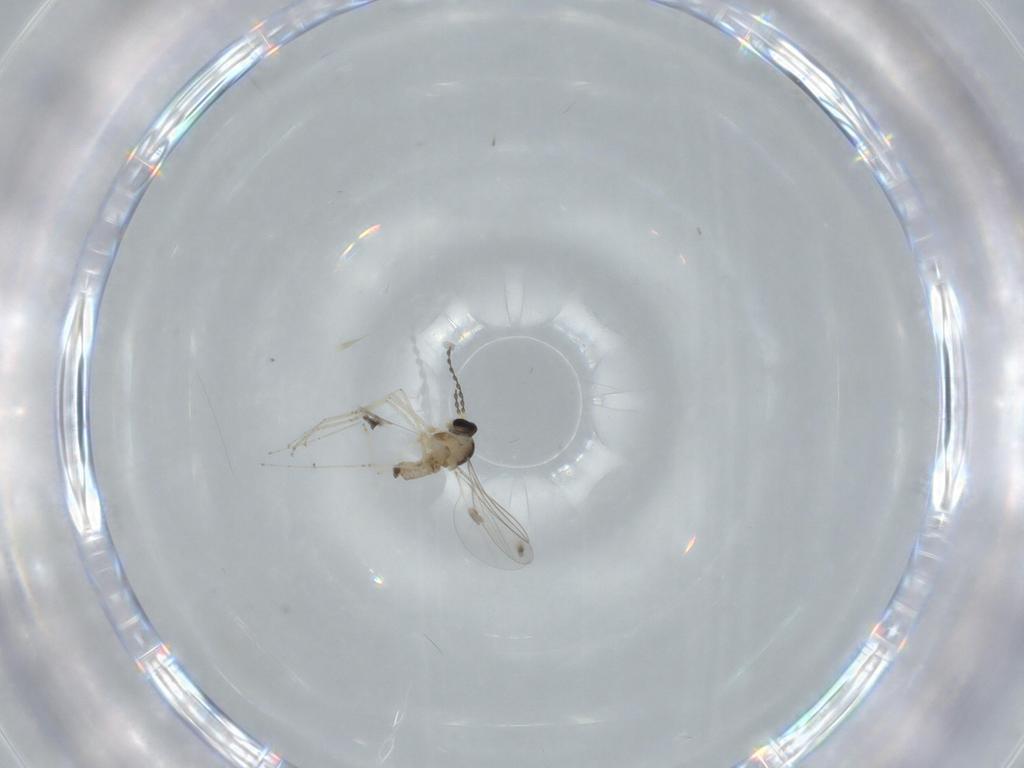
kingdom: Animalia
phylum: Arthropoda
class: Insecta
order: Diptera
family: Cecidomyiidae
